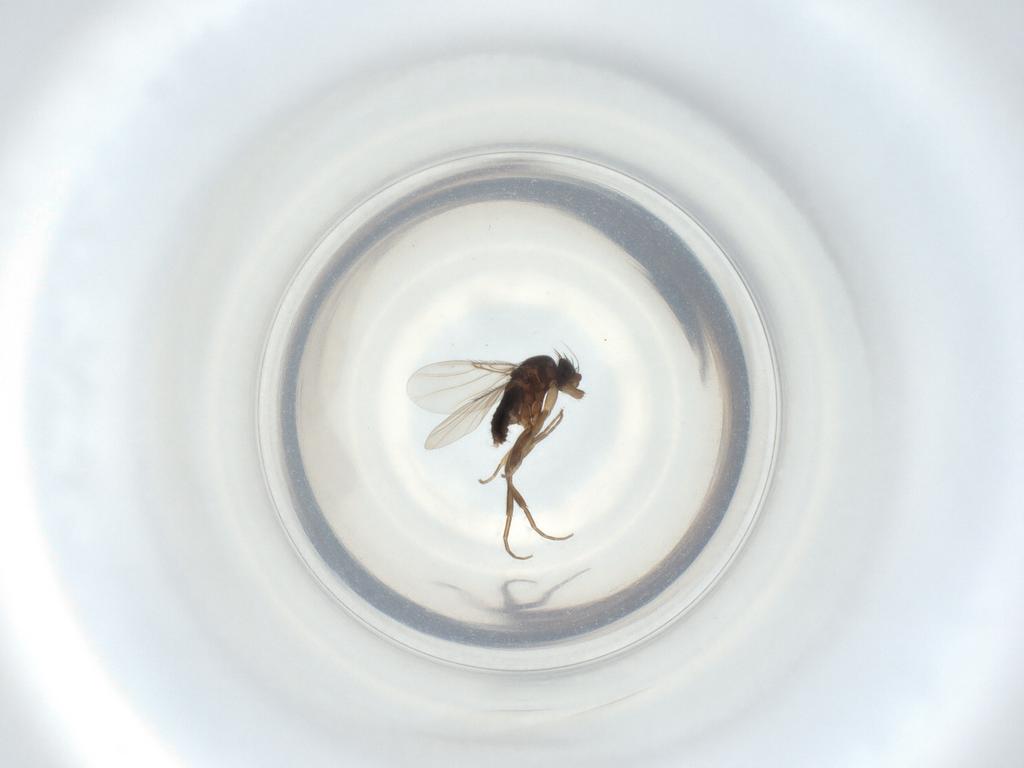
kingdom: Animalia
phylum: Arthropoda
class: Insecta
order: Diptera
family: Phoridae
